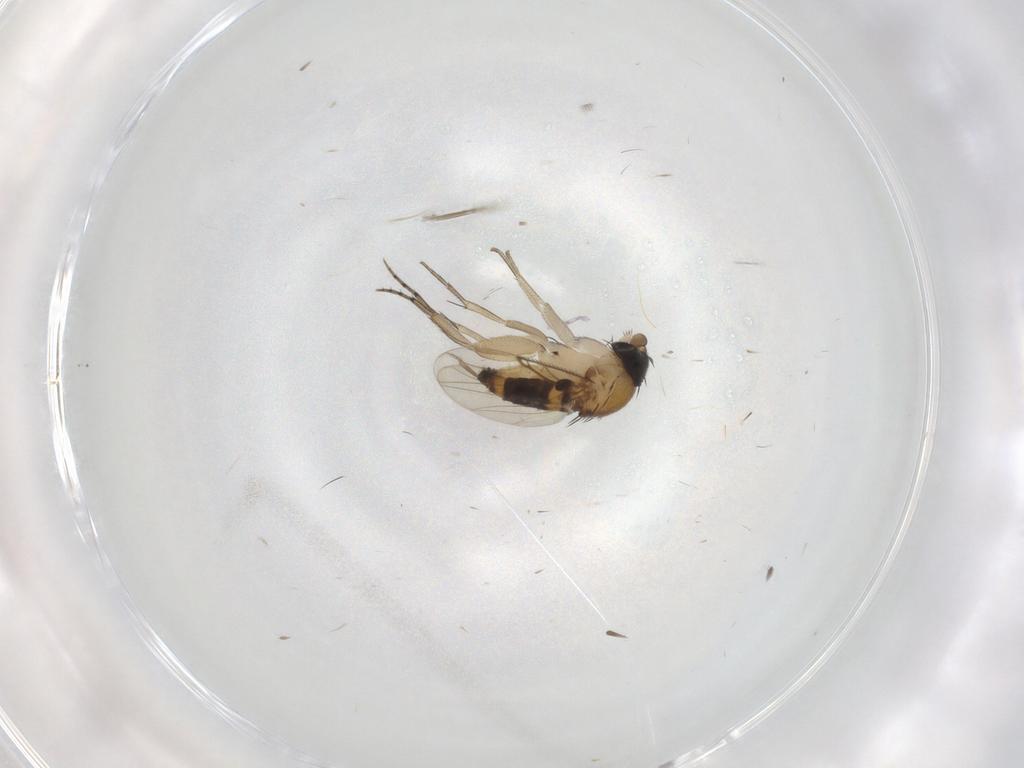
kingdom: Animalia
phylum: Arthropoda
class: Insecta
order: Diptera
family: Phoridae
